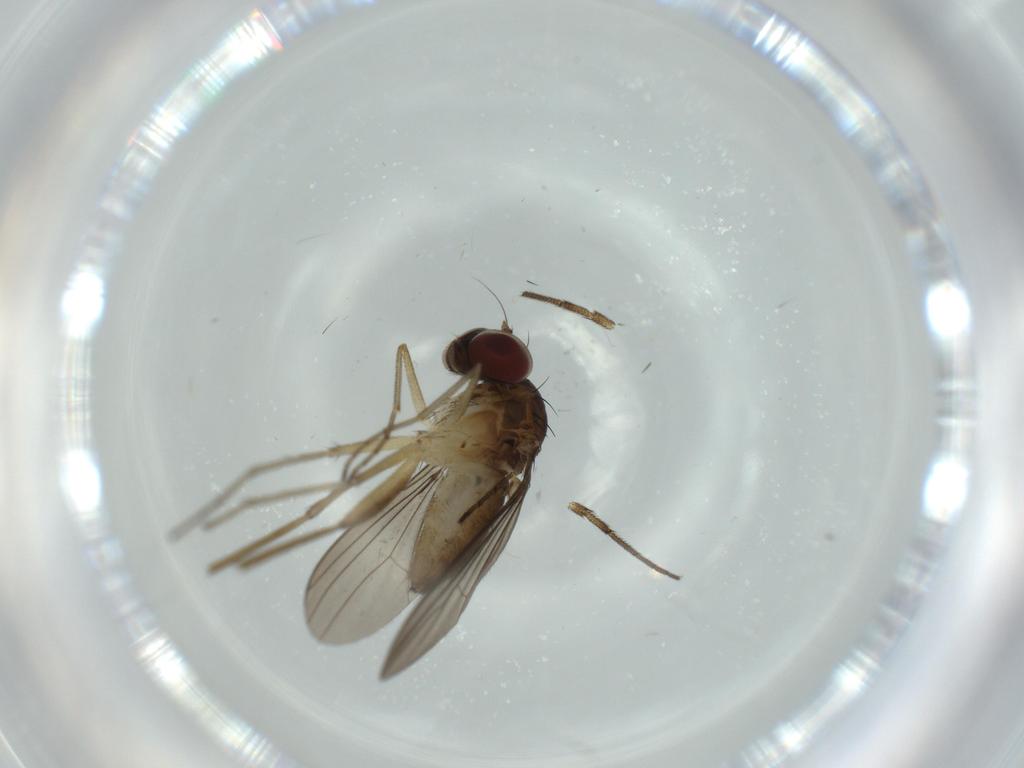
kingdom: Animalia
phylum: Arthropoda
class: Insecta
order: Diptera
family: Dolichopodidae
